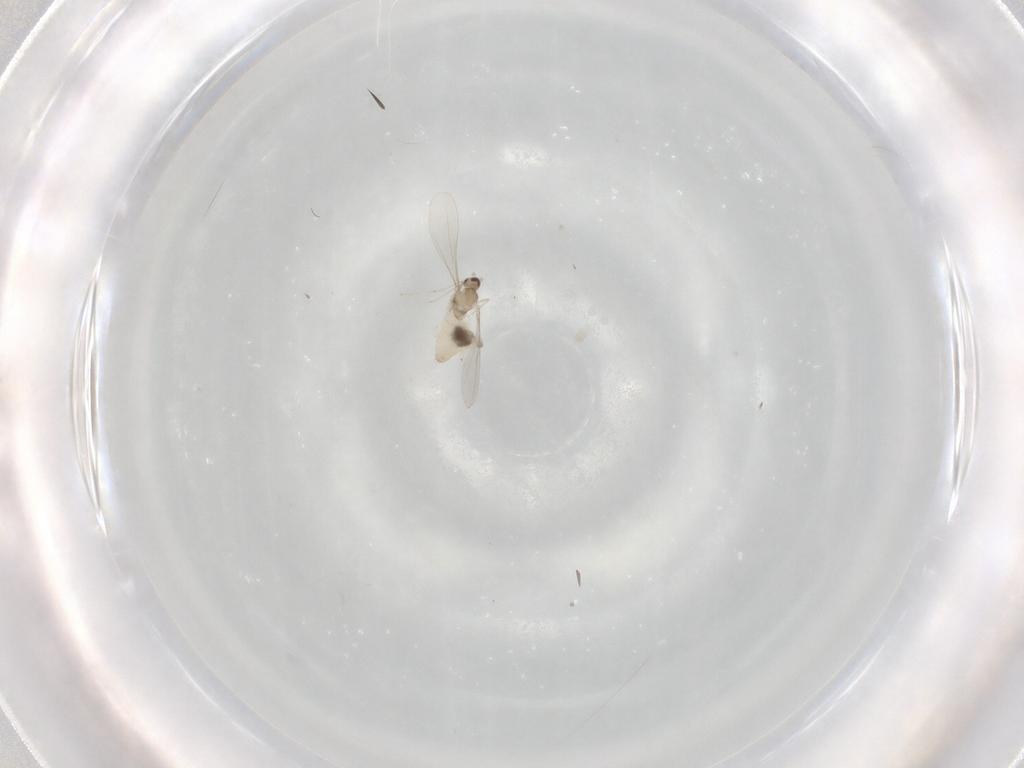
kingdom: Animalia
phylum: Arthropoda
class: Insecta
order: Diptera
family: Cecidomyiidae
